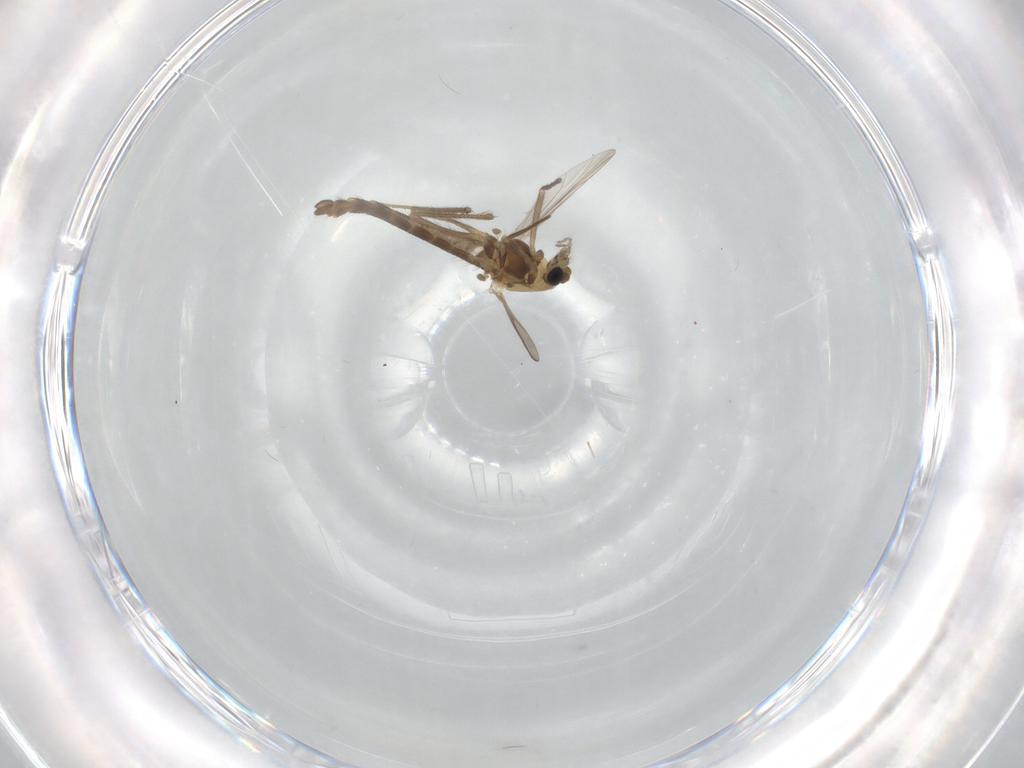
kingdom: Animalia
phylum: Arthropoda
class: Insecta
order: Diptera
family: Chironomidae
